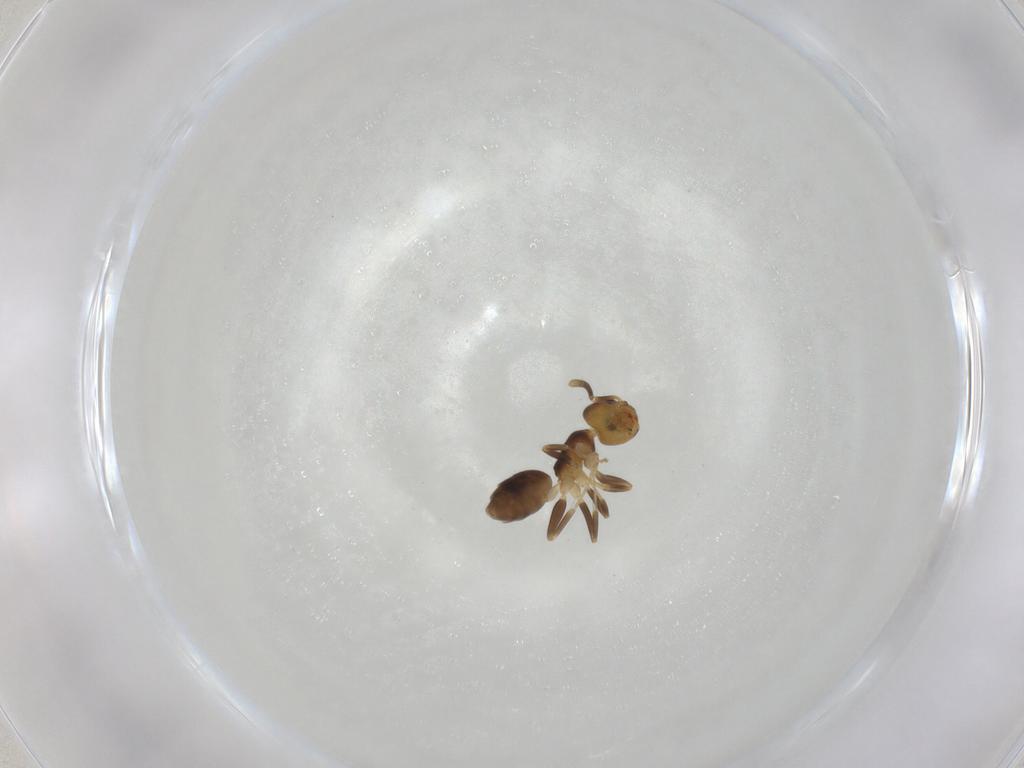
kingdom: Animalia
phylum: Arthropoda
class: Insecta
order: Hymenoptera
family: Formicidae
